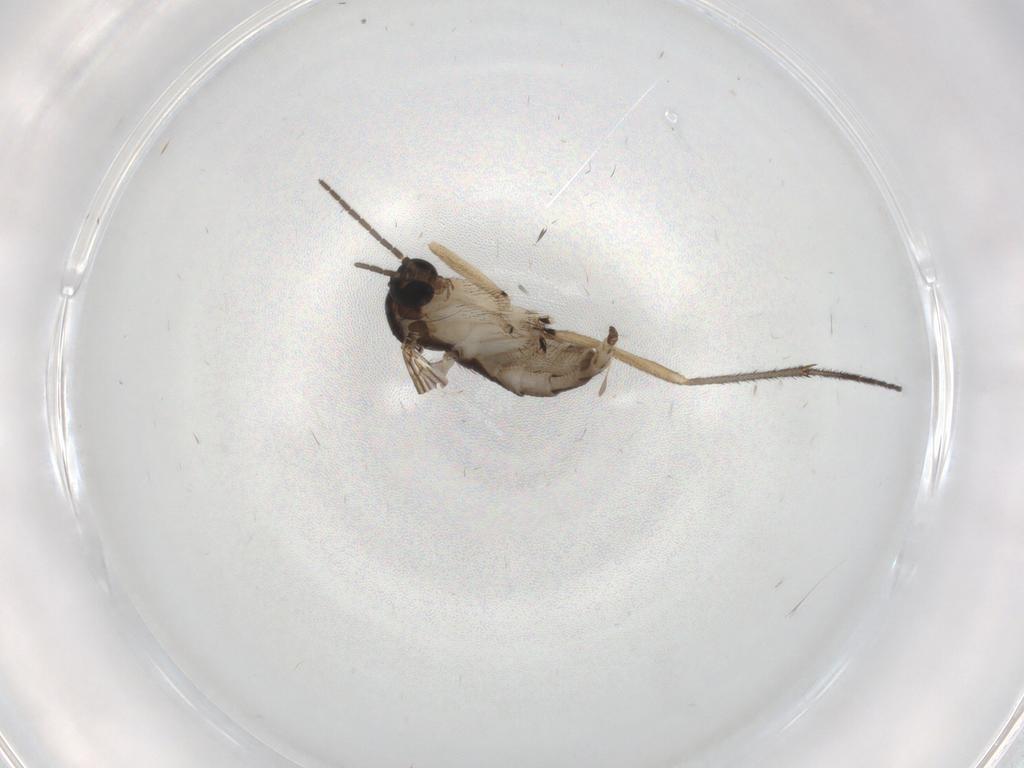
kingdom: Animalia
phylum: Arthropoda
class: Insecta
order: Diptera
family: Sciaridae
